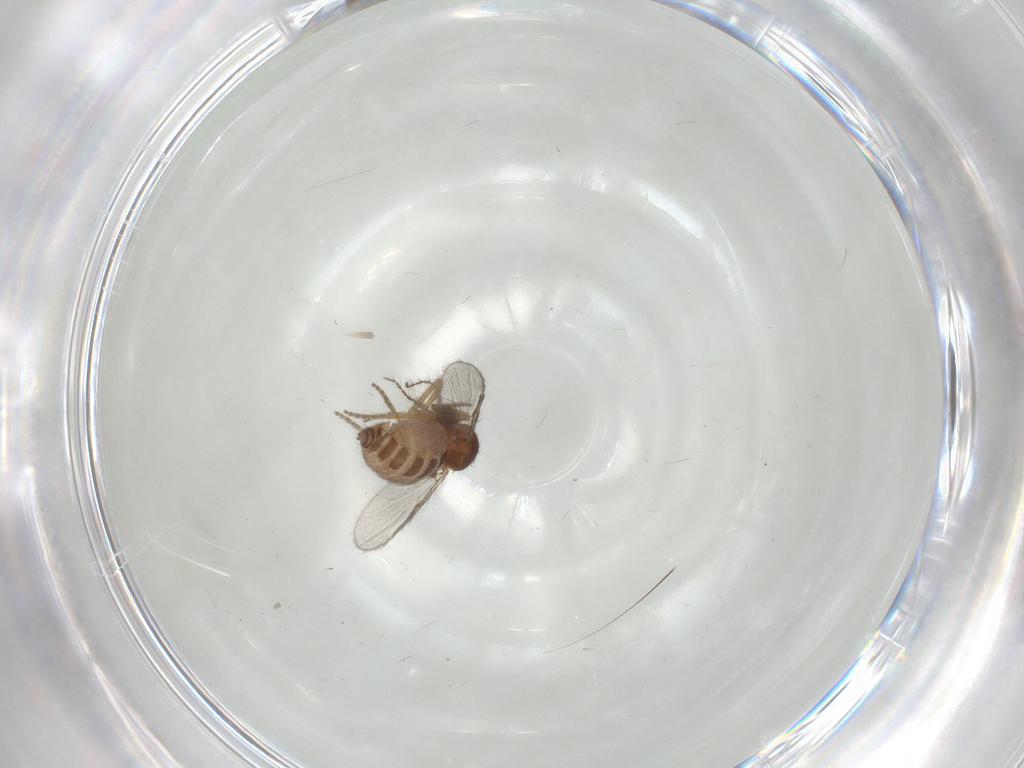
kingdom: Animalia
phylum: Arthropoda
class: Insecta
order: Diptera
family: Ceratopogonidae
